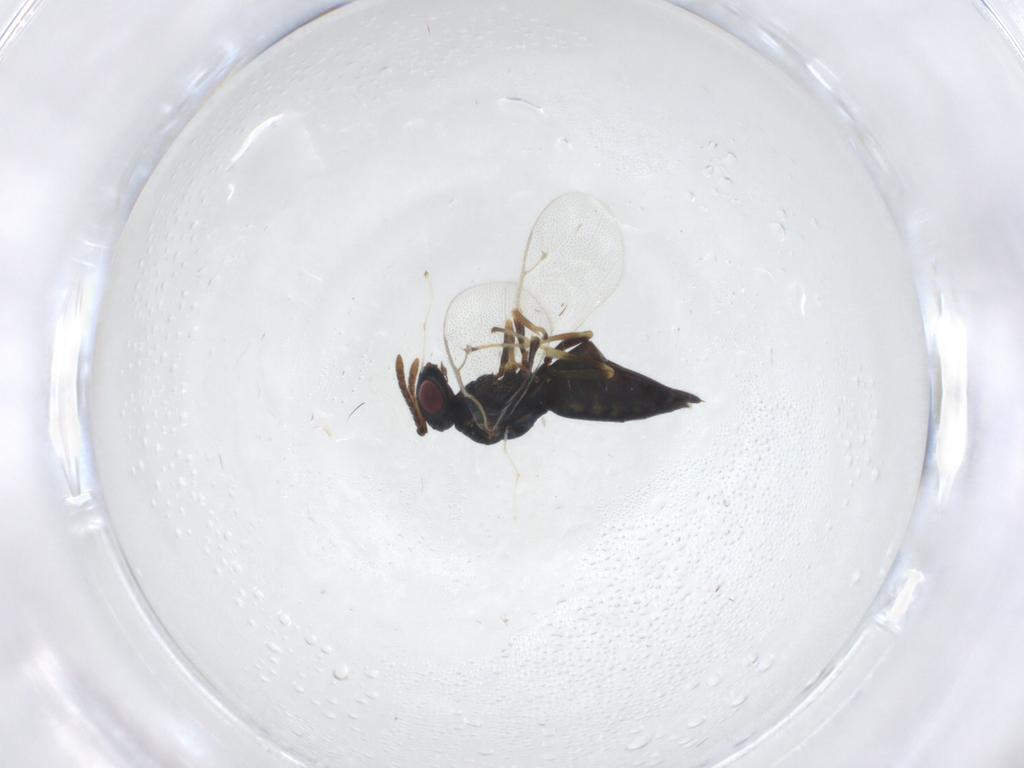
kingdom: Animalia
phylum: Arthropoda
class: Insecta
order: Hymenoptera
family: Pteromalidae
